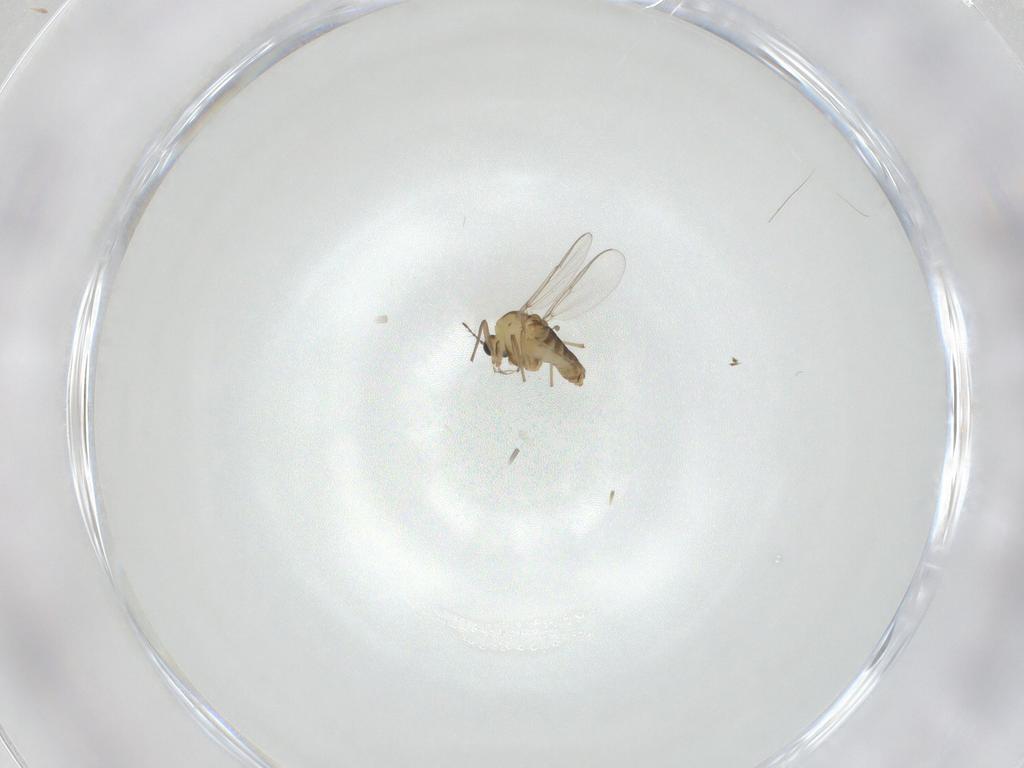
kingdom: Animalia
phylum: Arthropoda
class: Insecta
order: Diptera
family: Chironomidae
